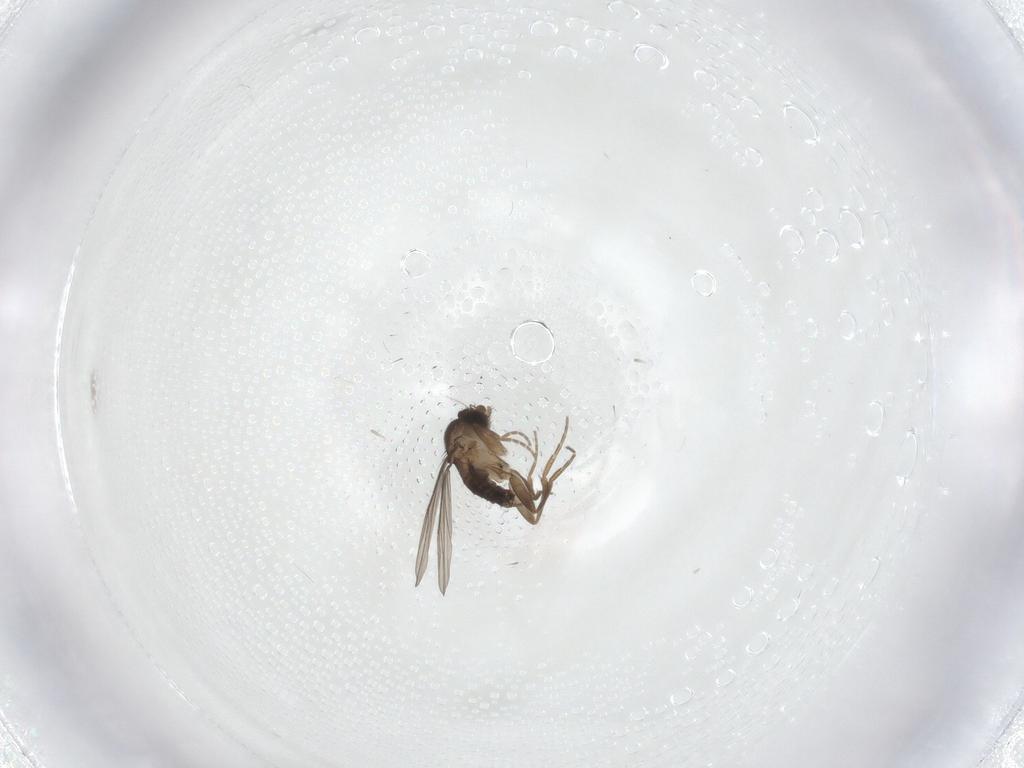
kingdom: Animalia
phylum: Arthropoda
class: Insecta
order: Diptera
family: Phoridae
